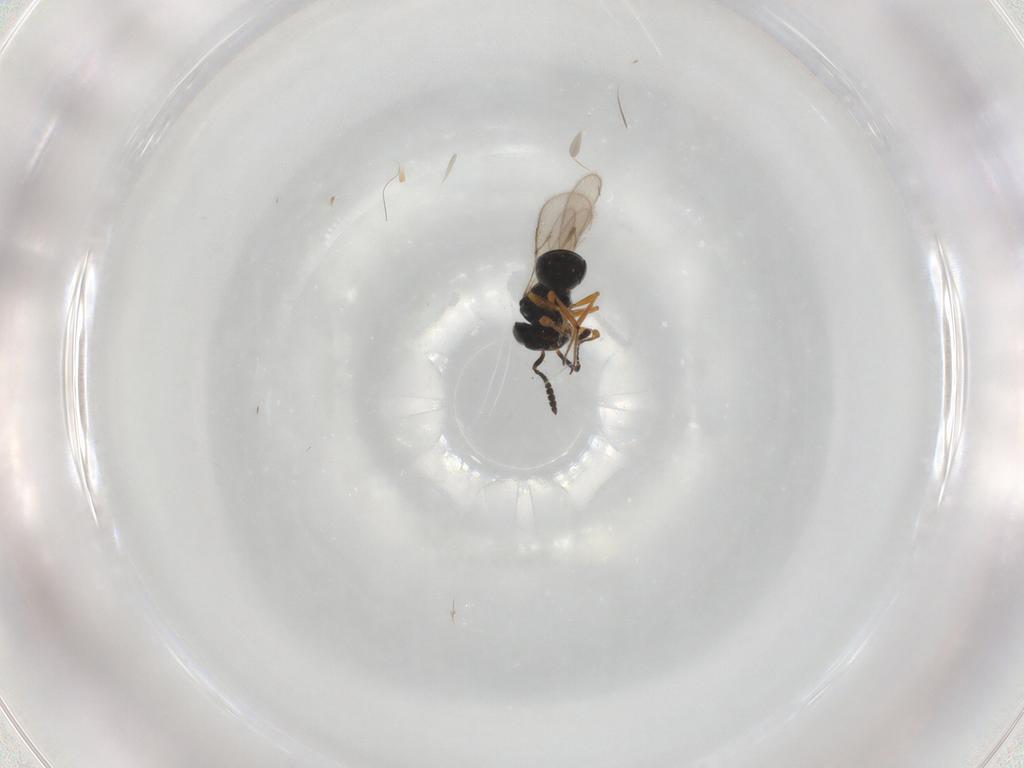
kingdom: Animalia
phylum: Arthropoda
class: Insecta
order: Hymenoptera
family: Scelionidae
